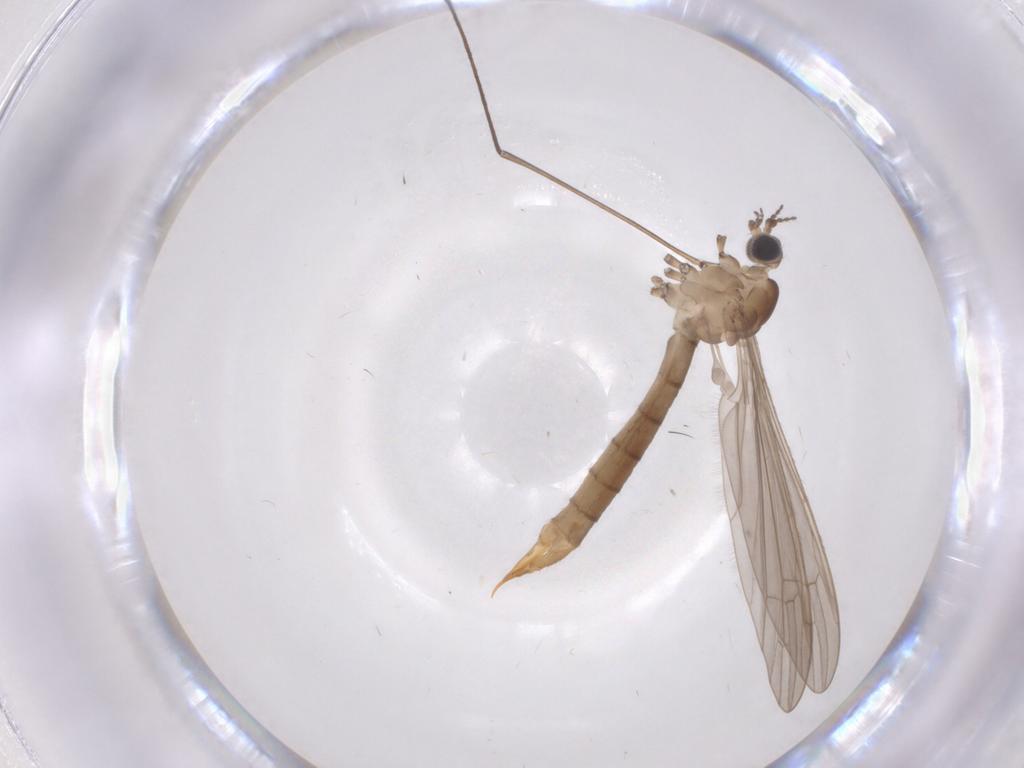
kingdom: Animalia
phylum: Arthropoda
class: Insecta
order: Diptera
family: Limoniidae
